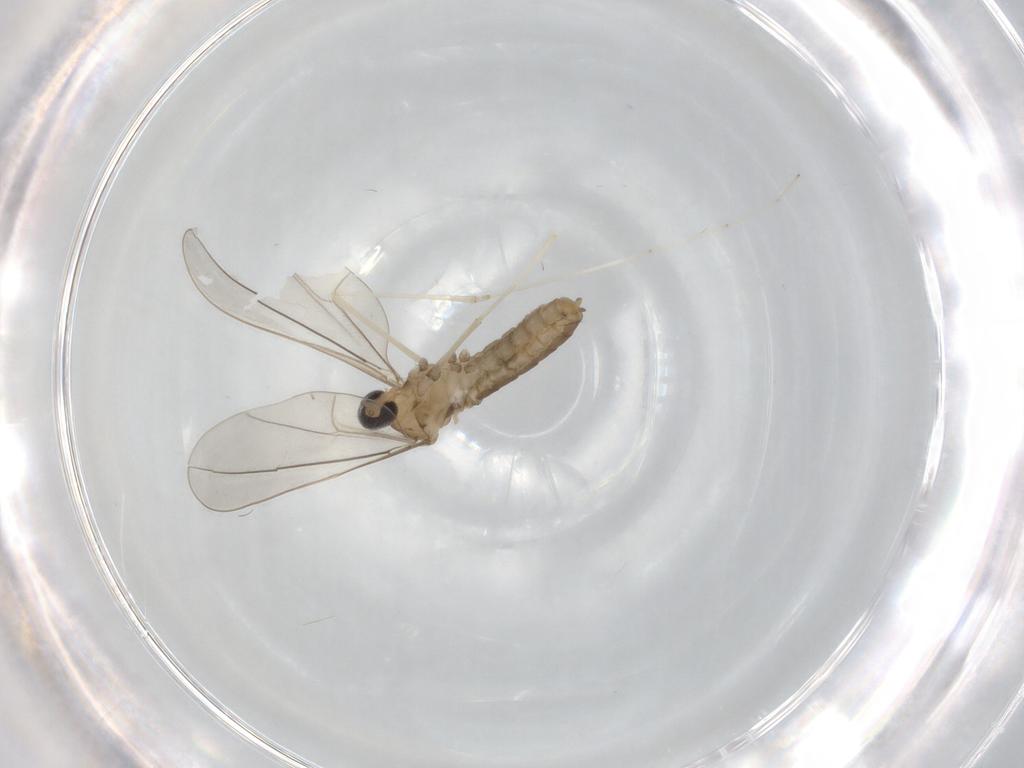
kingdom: Animalia
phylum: Arthropoda
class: Insecta
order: Diptera
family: Cecidomyiidae
